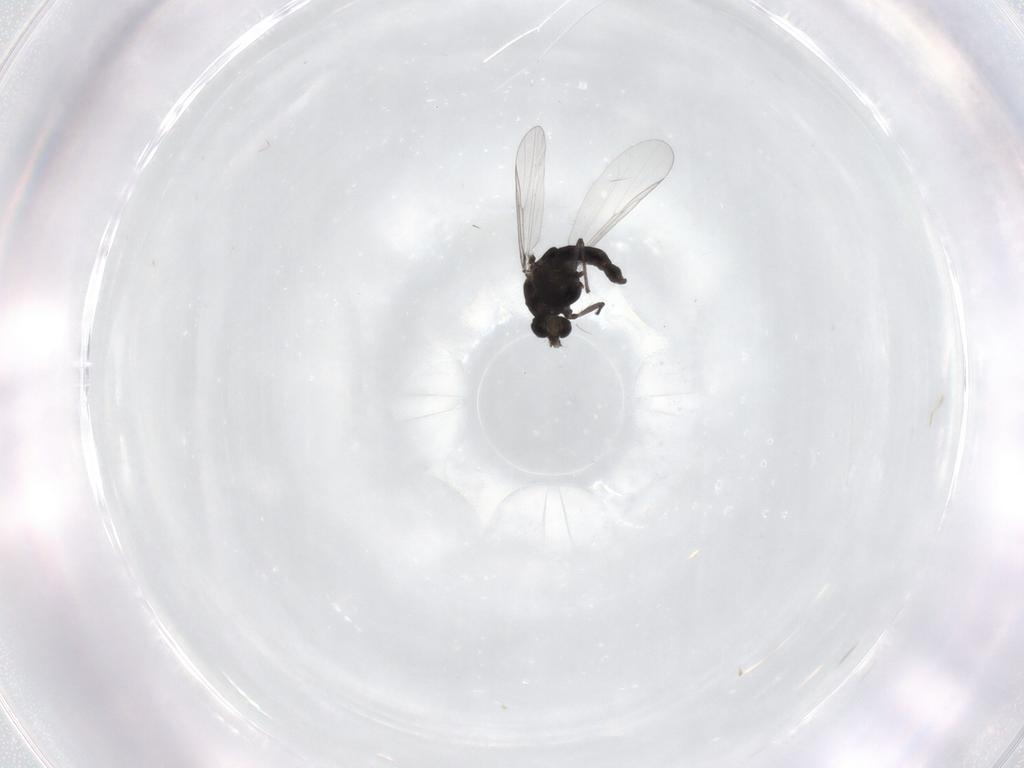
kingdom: Animalia
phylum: Arthropoda
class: Insecta
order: Diptera
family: Chironomidae
